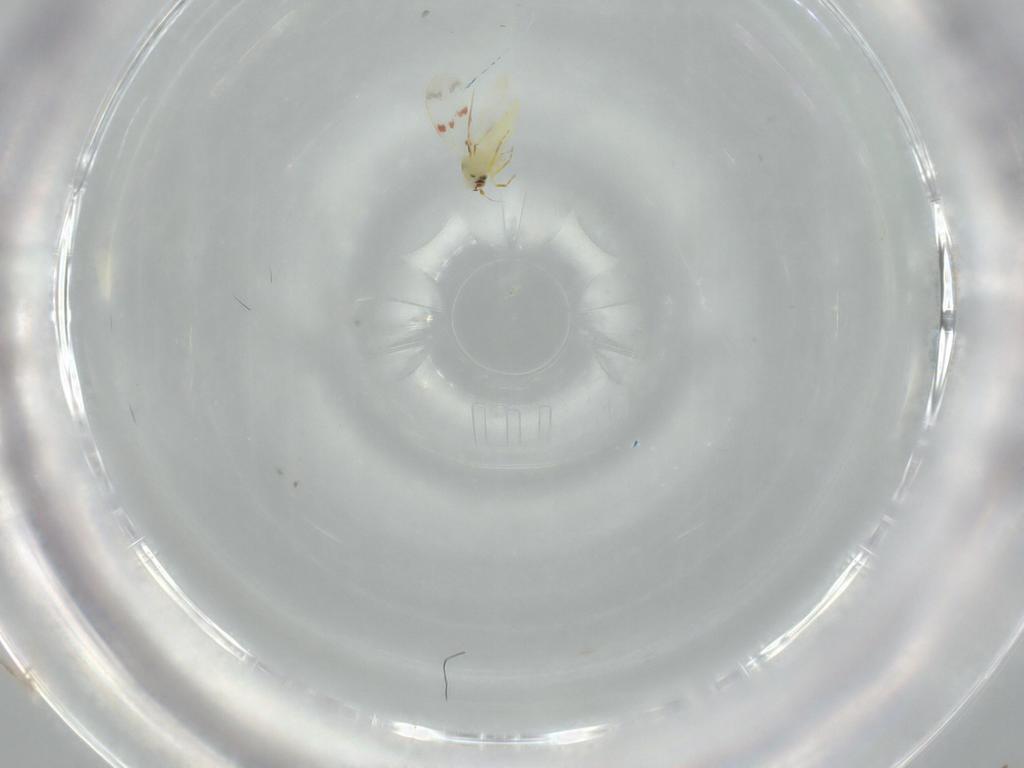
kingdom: Animalia
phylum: Arthropoda
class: Insecta
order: Hemiptera
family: Aleyrodidae
